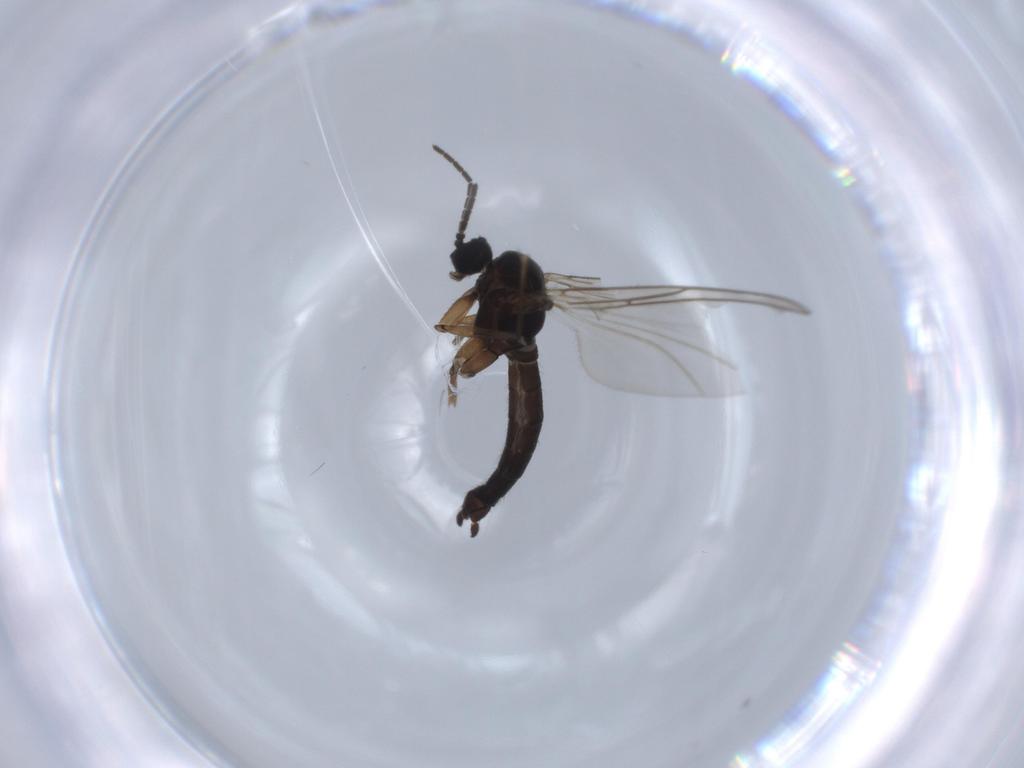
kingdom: Animalia
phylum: Arthropoda
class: Insecta
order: Diptera
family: Sciaridae
